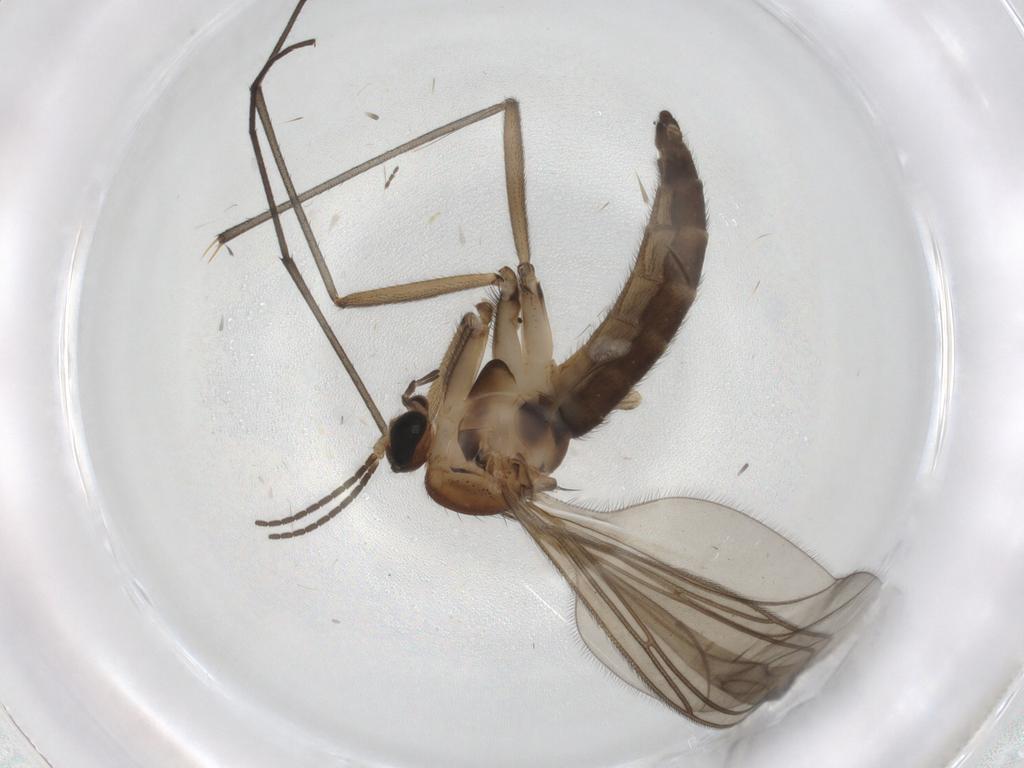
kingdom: Animalia
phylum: Arthropoda
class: Insecta
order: Diptera
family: Sciaridae
